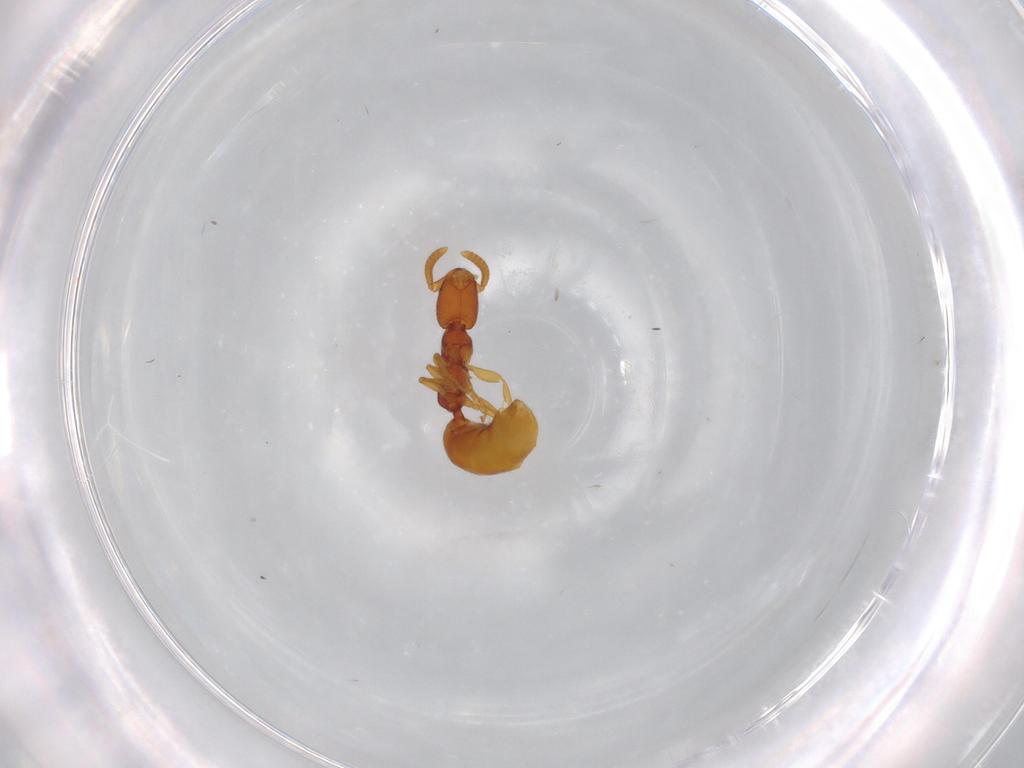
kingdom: Animalia
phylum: Arthropoda
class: Insecta
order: Hymenoptera
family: Bethylidae
